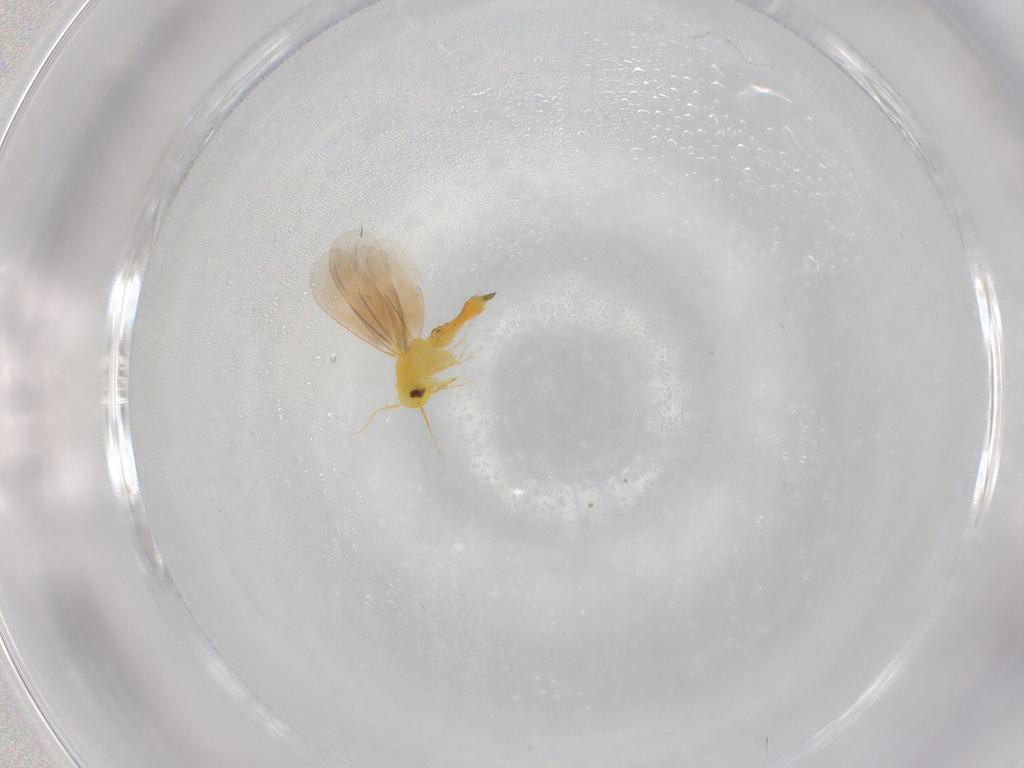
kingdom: Animalia
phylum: Arthropoda
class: Insecta
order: Hemiptera
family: Aleyrodidae
